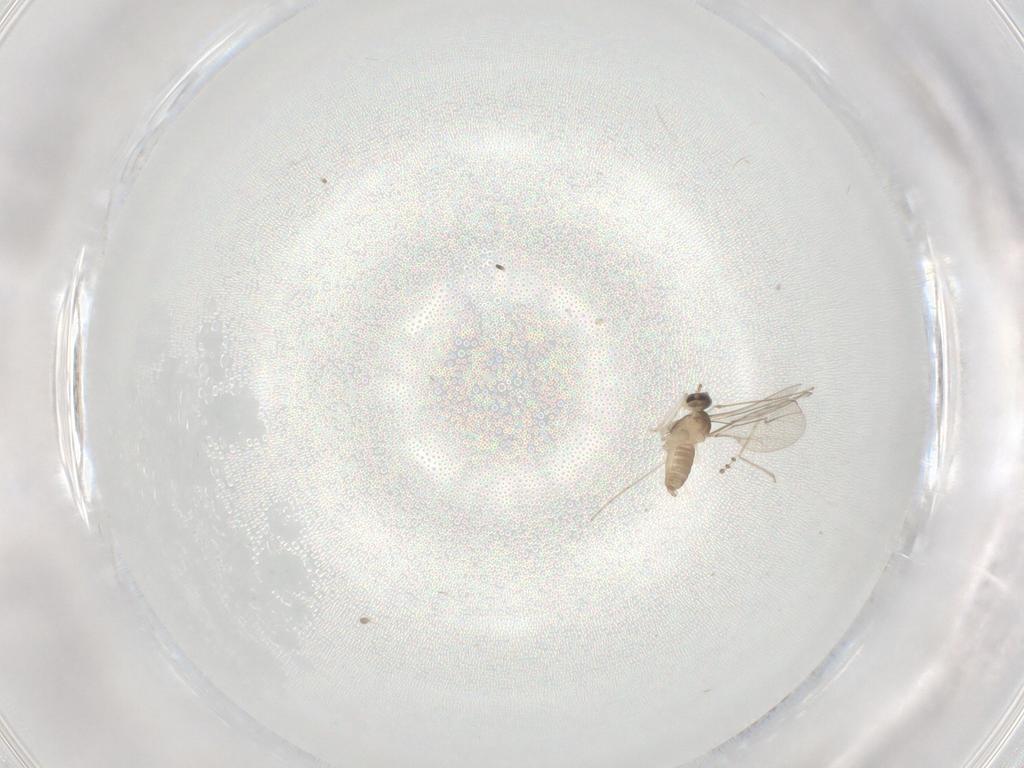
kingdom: Animalia
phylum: Arthropoda
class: Insecta
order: Diptera
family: Cecidomyiidae
